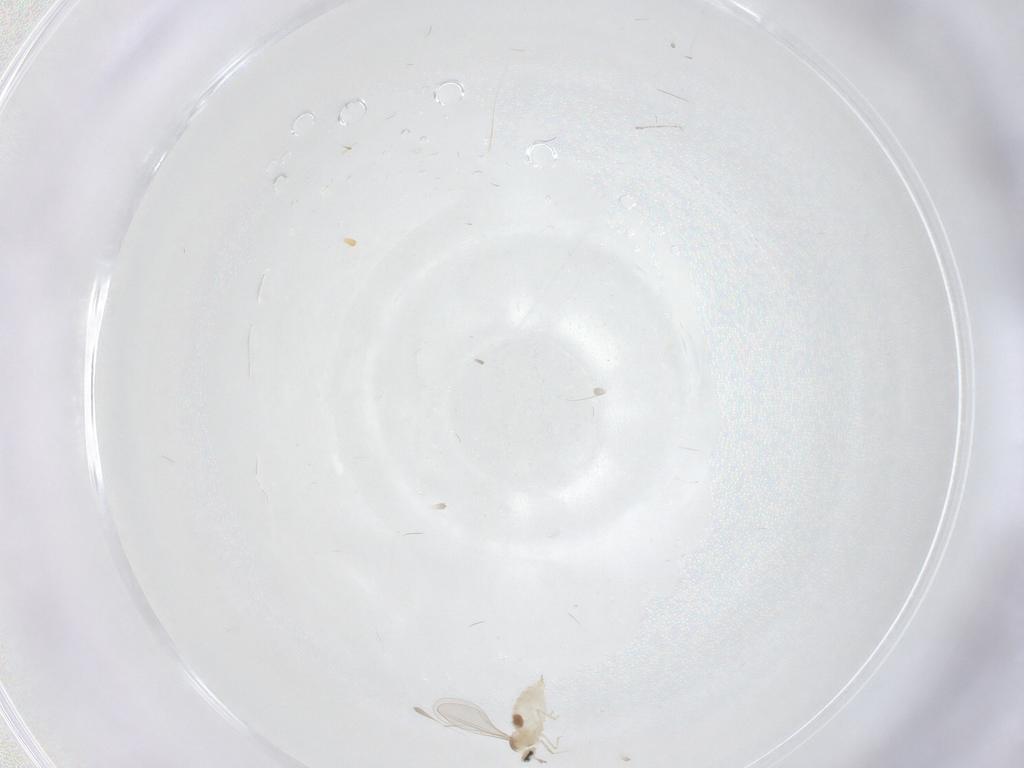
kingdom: Animalia
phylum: Arthropoda
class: Insecta
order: Diptera
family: Cecidomyiidae
